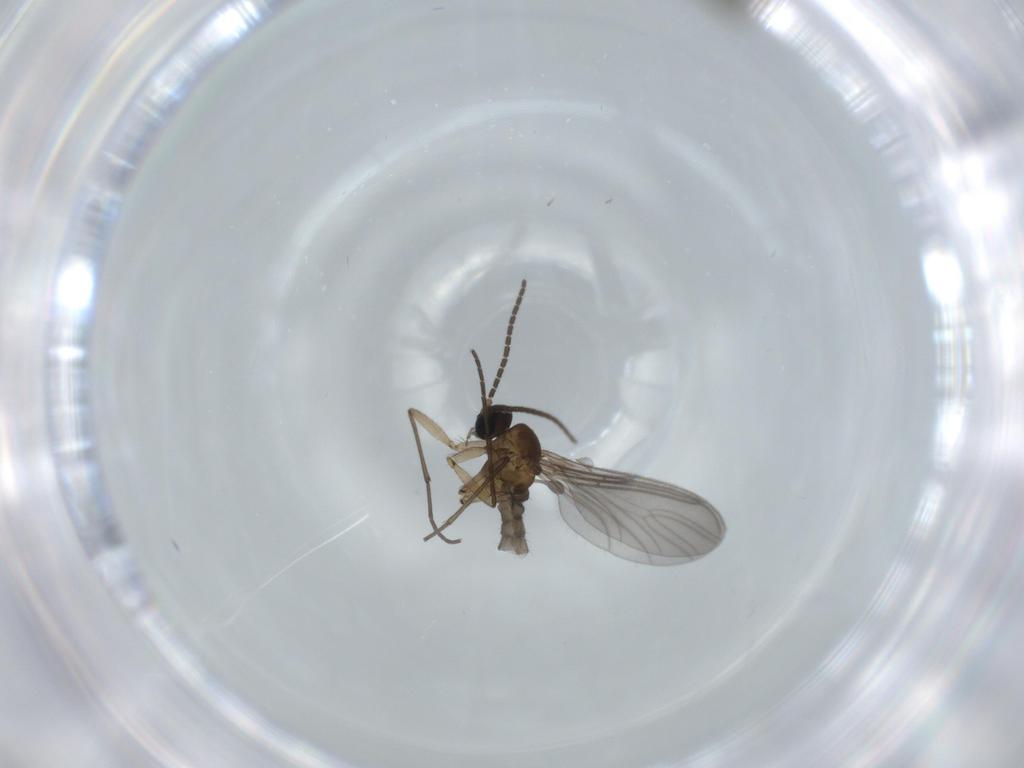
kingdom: Animalia
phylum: Arthropoda
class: Insecta
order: Diptera
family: Sciaridae
